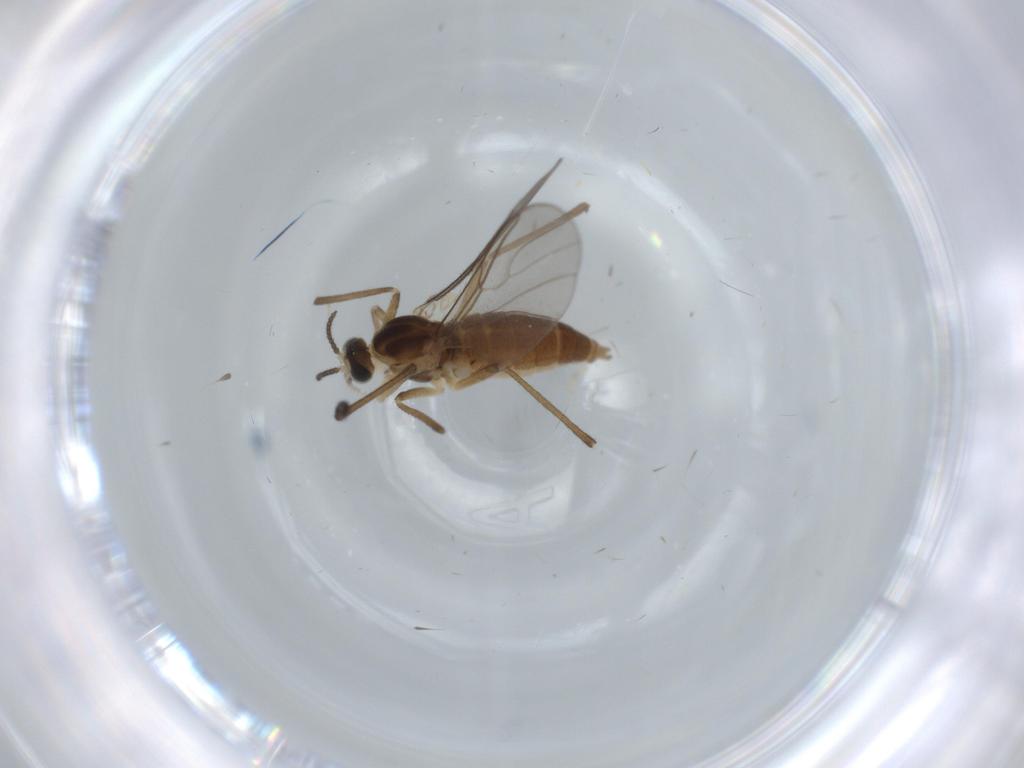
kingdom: Animalia
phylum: Arthropoda
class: Insecta
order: Diptera
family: Cecidomyiidae
